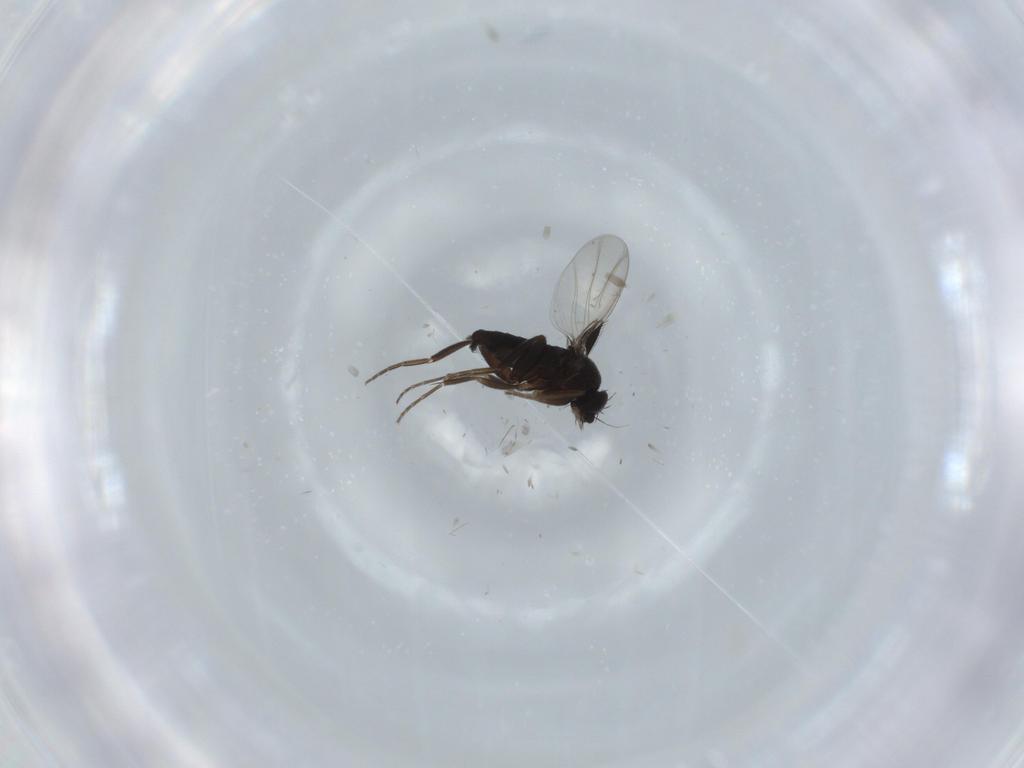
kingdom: Animalia
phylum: Arthropoda
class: Insecta
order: Diptera
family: Phoridae
